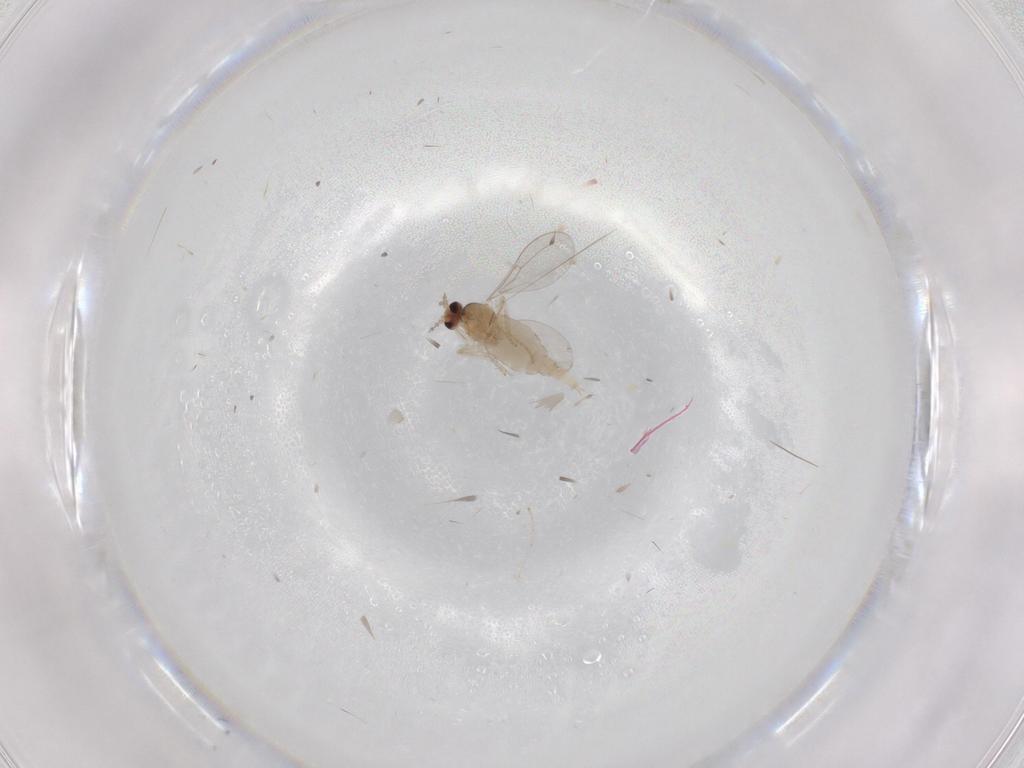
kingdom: Animalia
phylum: Arthropoda
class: Insecta
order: Diptera
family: Cecidomyiidae
